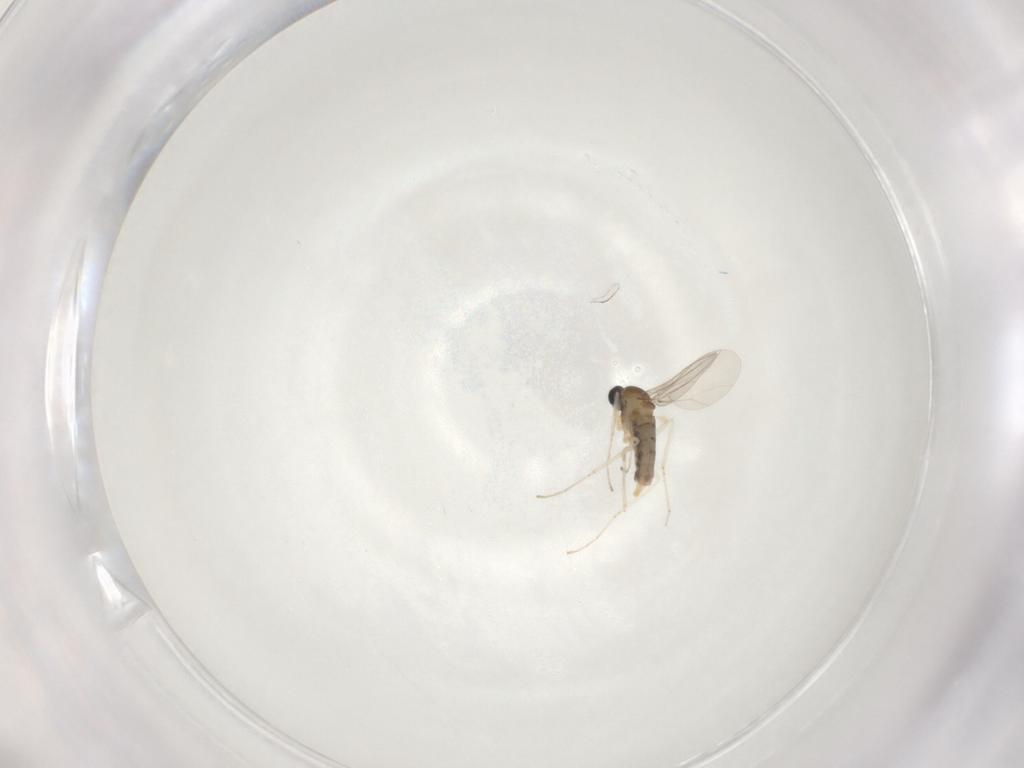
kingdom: Animalia
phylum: Arthropoda
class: Insecta
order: Diptera
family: Cecidomyiidae
